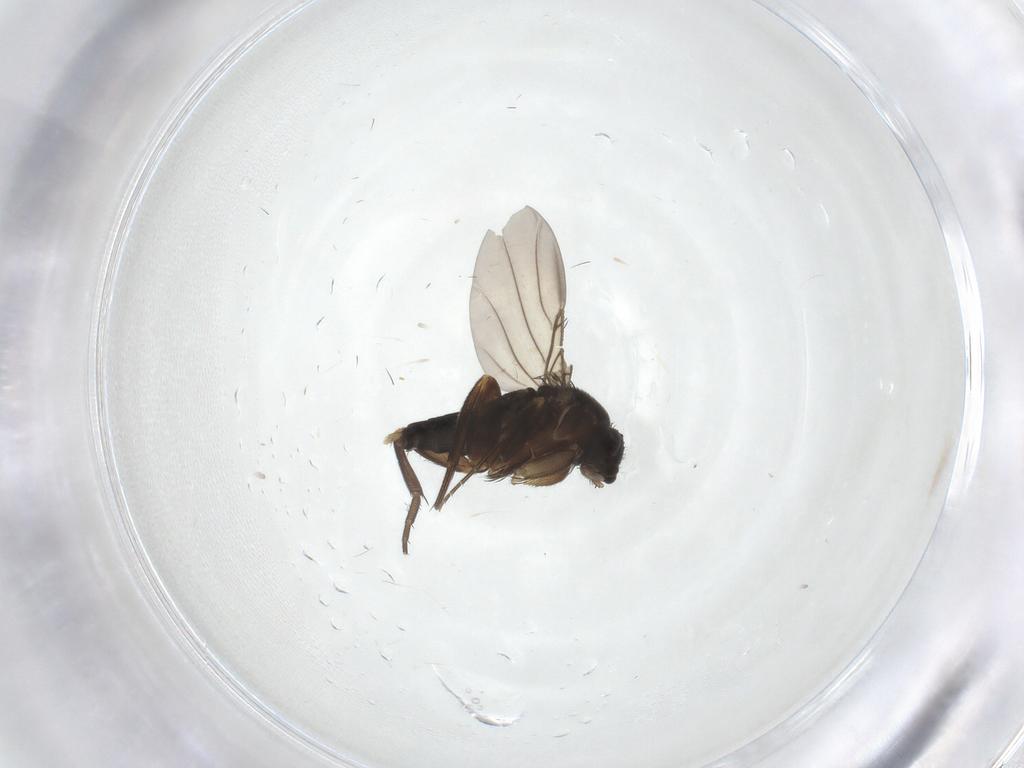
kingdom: Animalia
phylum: Arthropoda
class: Insecta
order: Diptera
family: Phoridae
